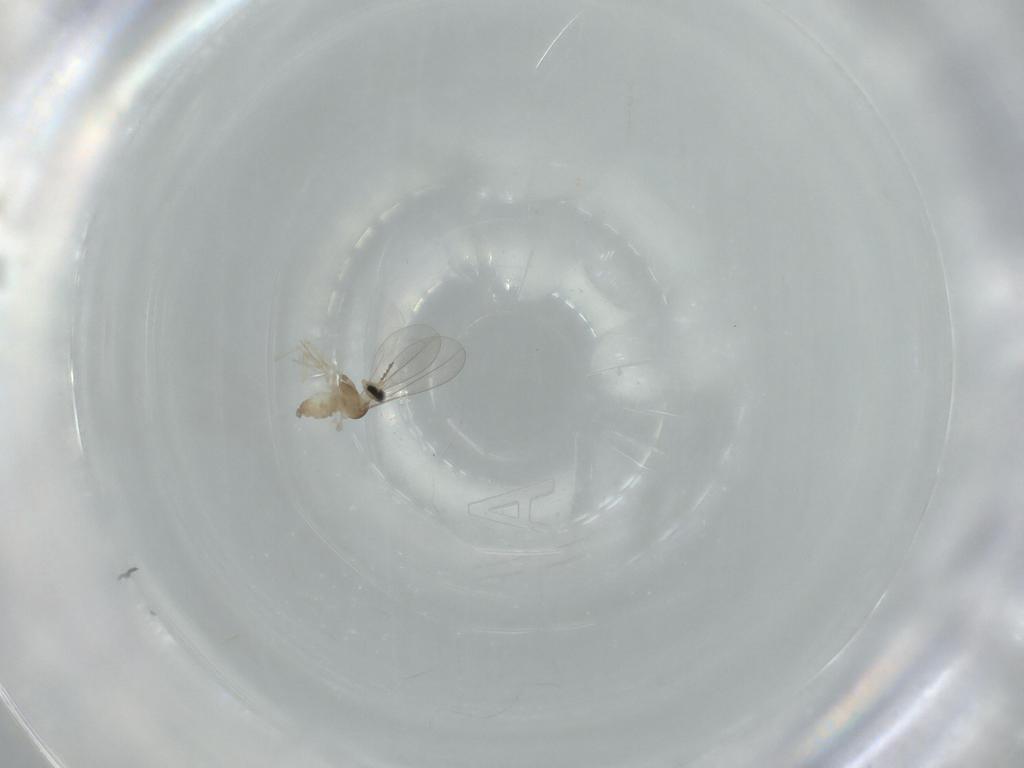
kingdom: Animalia
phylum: Arthropoda
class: Insecta
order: Diptera
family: Cecidomyiidae
